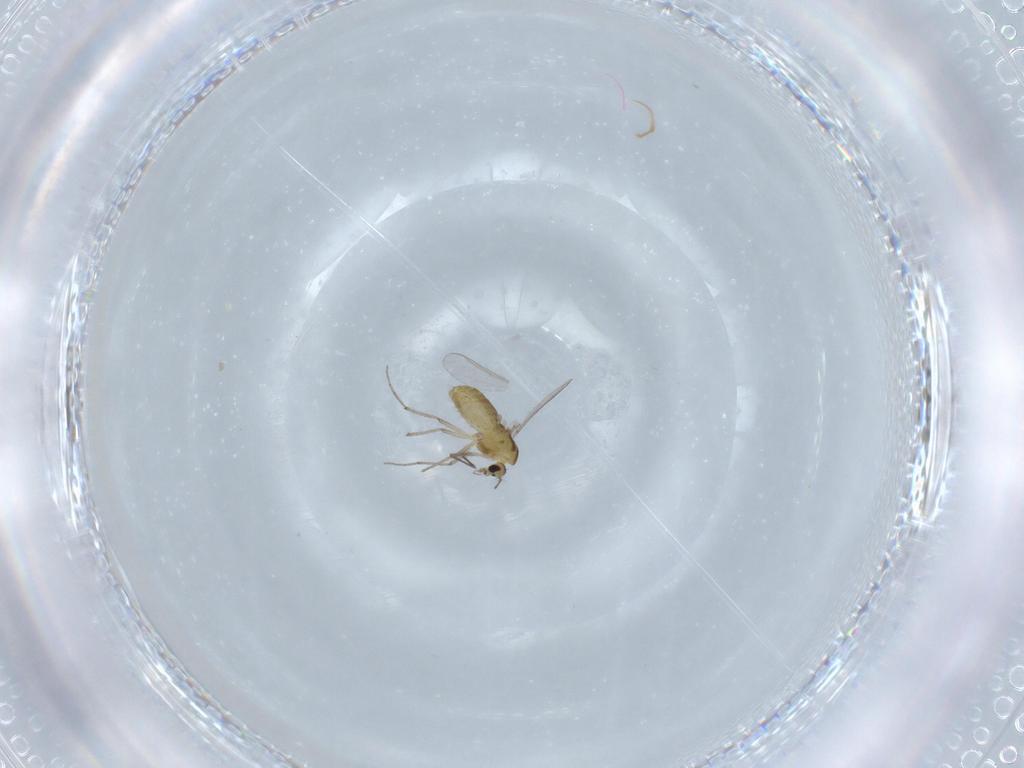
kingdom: Animalia
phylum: Arthropoda
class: Insecta
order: Diptera
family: Chironomidae
